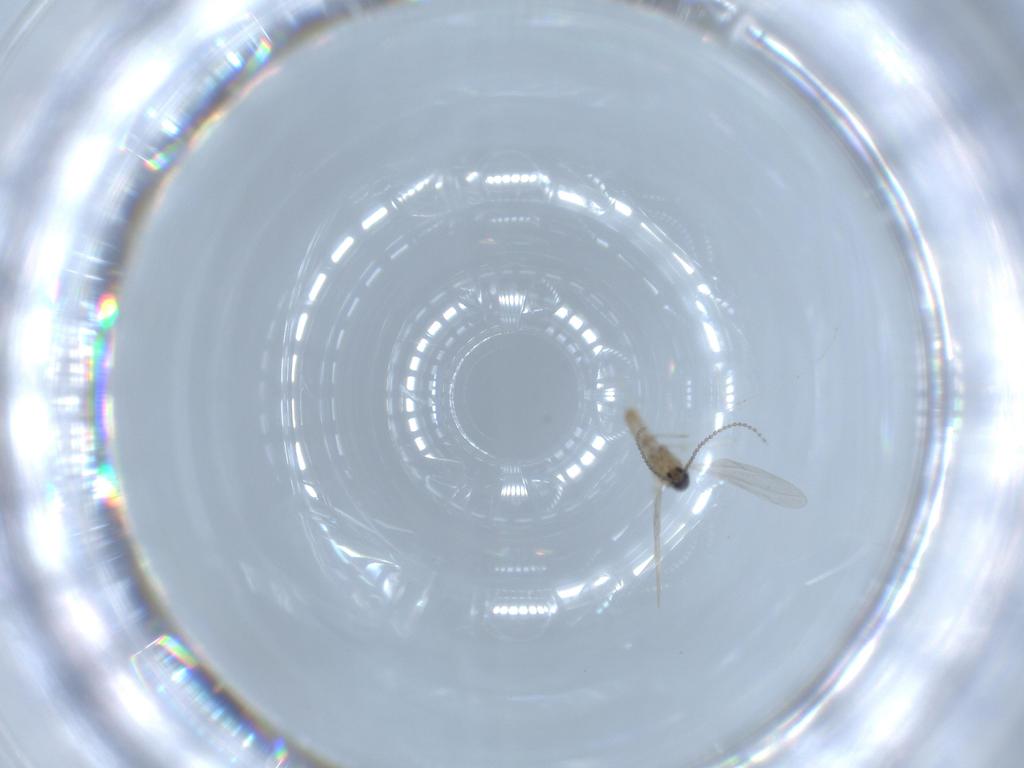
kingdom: Animalia
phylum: Arthropoda
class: Insecta
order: Diptera
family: Cecidomyiidae
